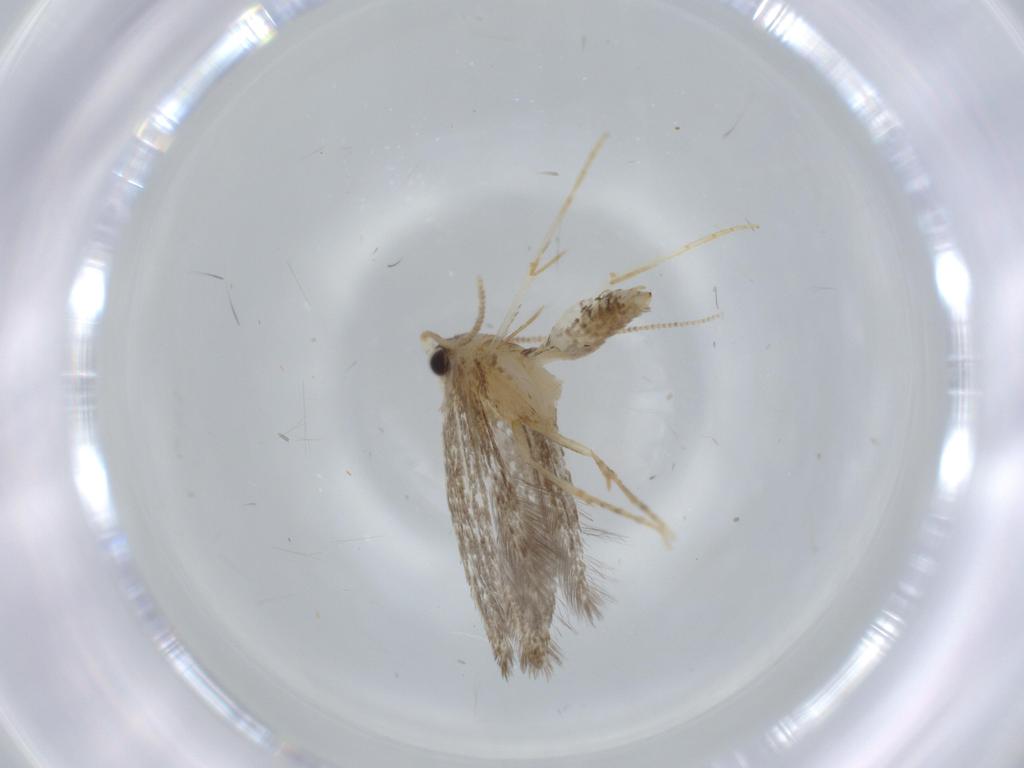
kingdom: Animalia
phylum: Arthropoda
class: Insecta
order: Lepidoptera
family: Tineidae
